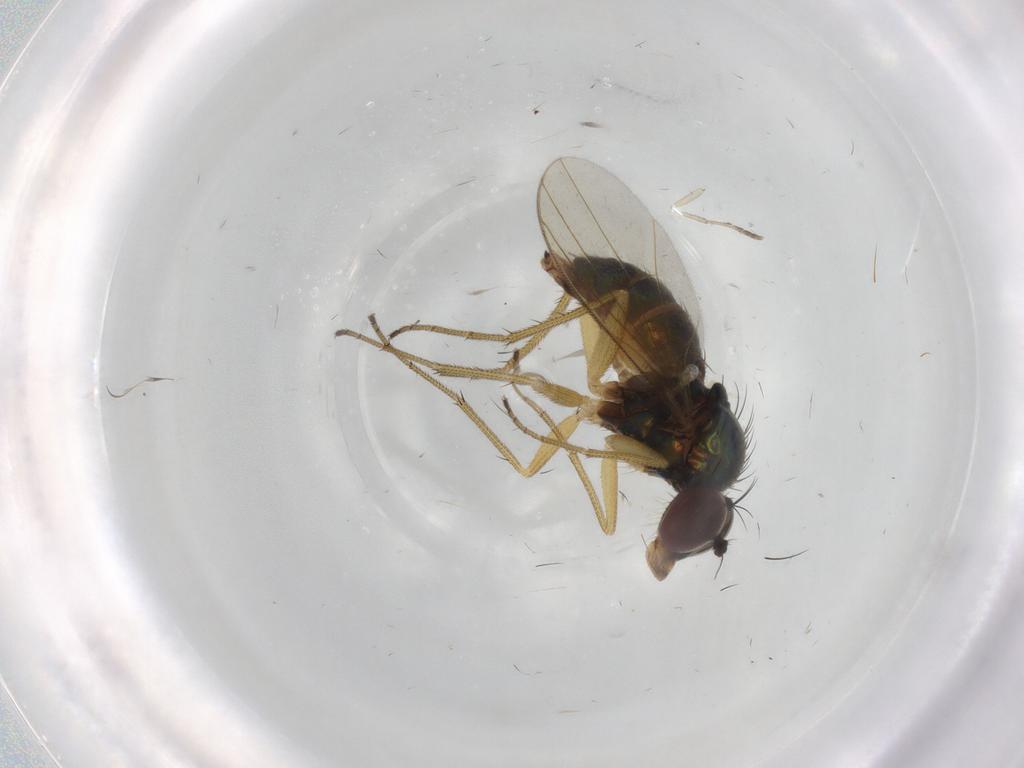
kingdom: Animalia
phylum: Arthropoda
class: Insecta
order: Diptera
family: Dolichopodidae
